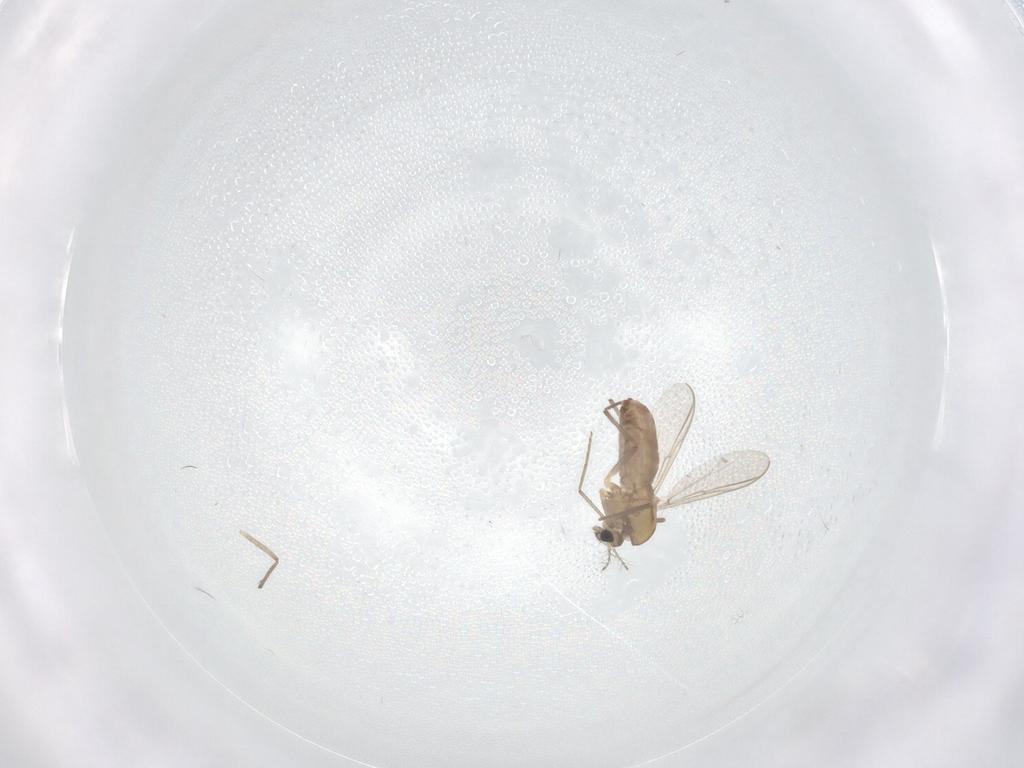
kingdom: Animalia
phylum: Arthropoda
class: Insecta
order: Diptera
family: Chironomidae
